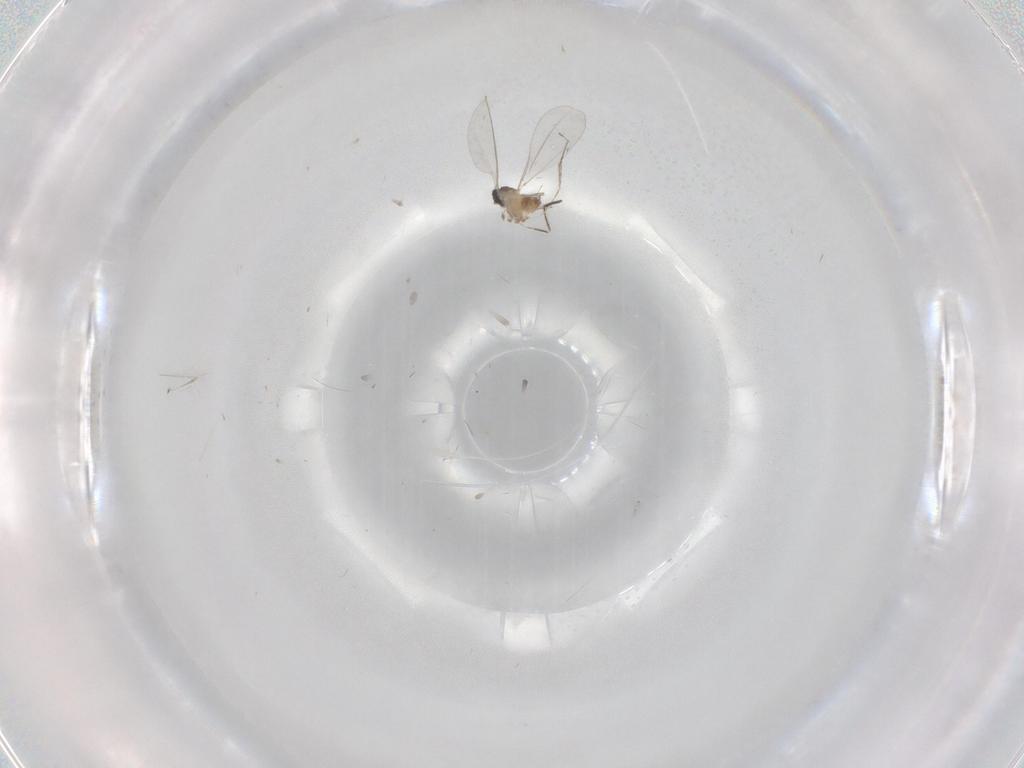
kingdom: Animalia
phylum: Arthropoda
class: Insecta
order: Diptera
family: Cecidomyiidae
